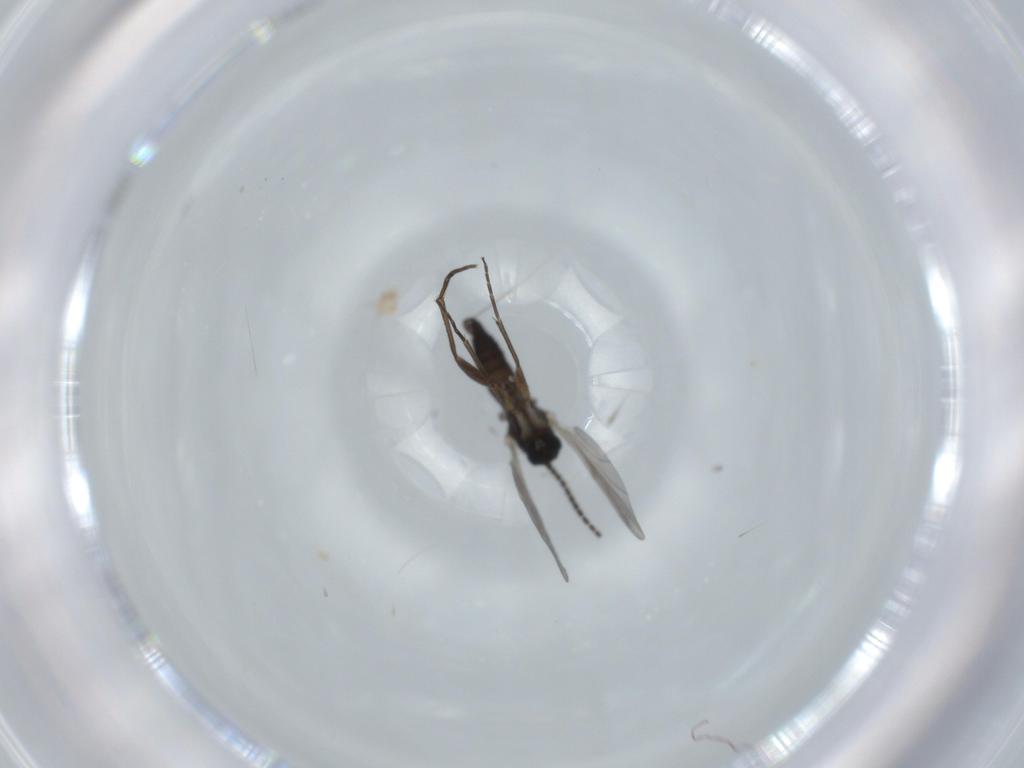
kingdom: Animalia
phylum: Arthropoda
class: Insecta
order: Diptera
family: Sciaridae
